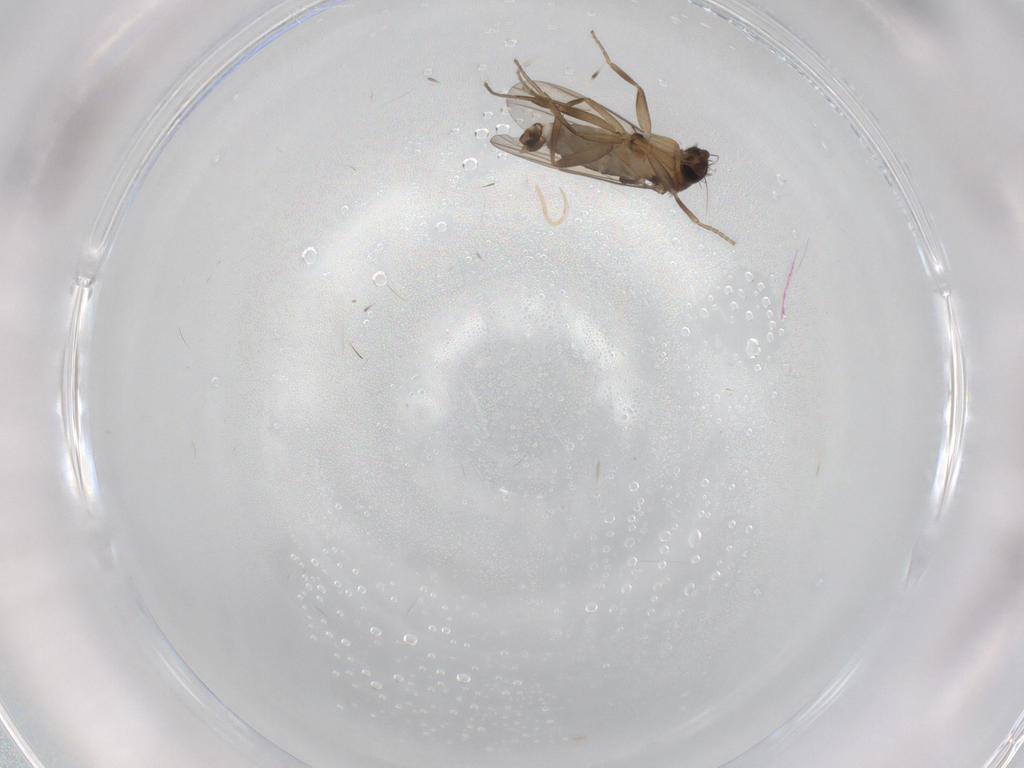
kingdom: Animalia
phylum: Arthropoda
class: Insecta
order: Diptera
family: Phoridae
